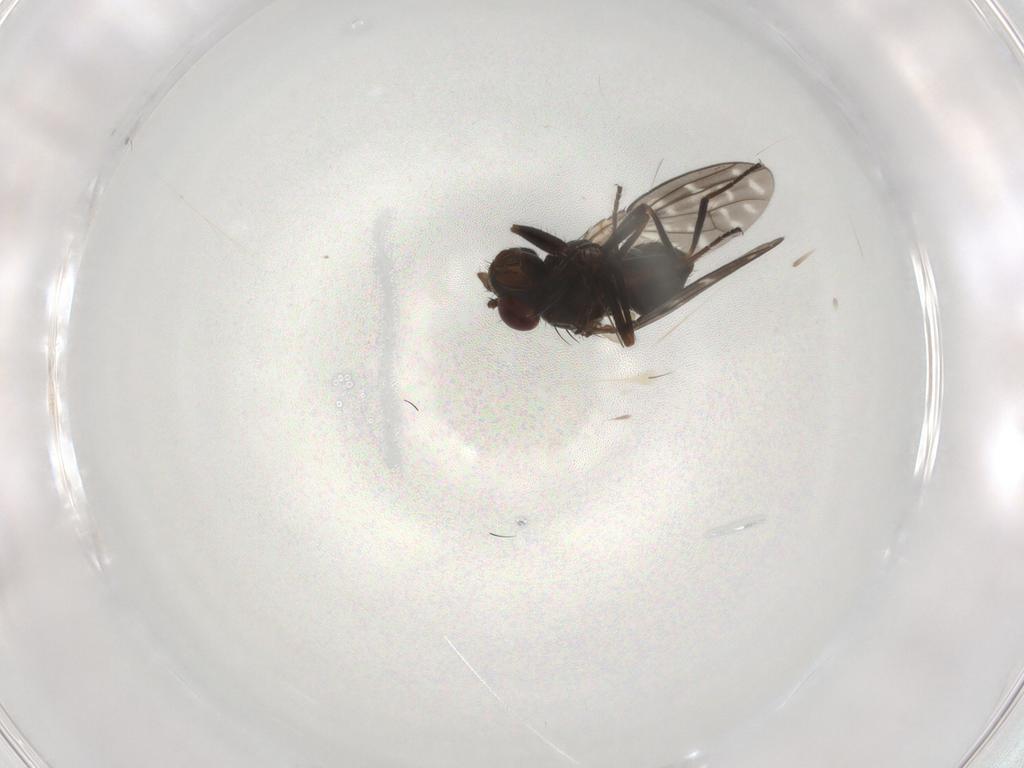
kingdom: Animalia
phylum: Arthropoda
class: Insecta
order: Diptera
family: Ephydridae
